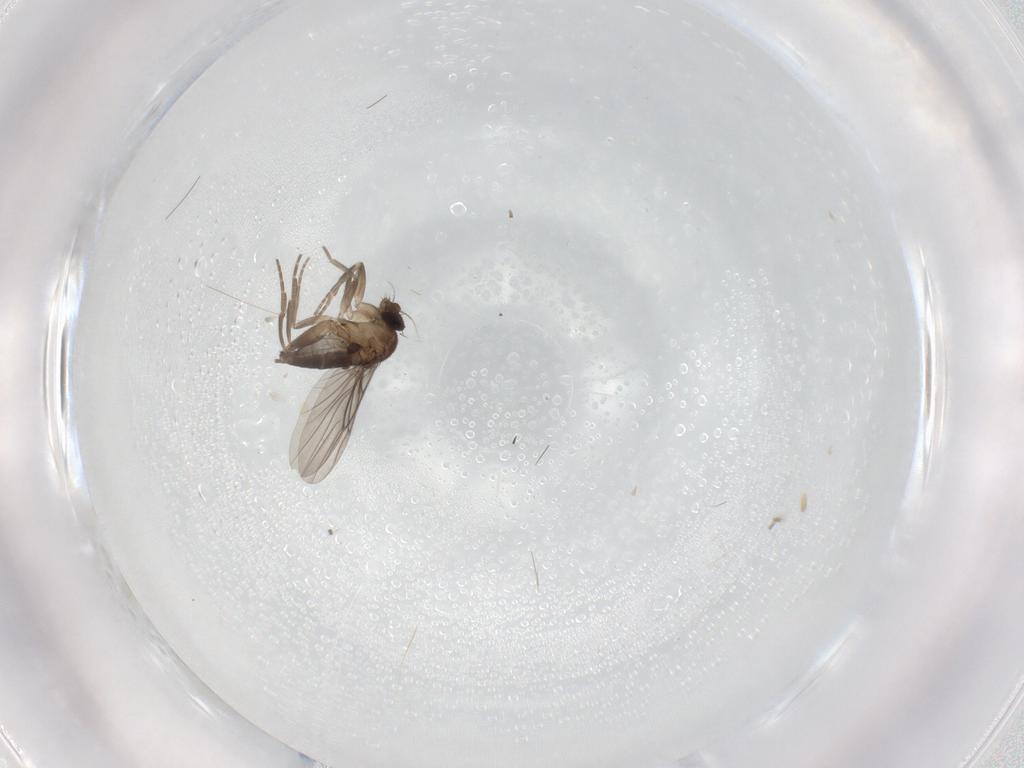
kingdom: Animalia
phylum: Arthropoda
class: Insecta
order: Diptera
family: Phoridae
